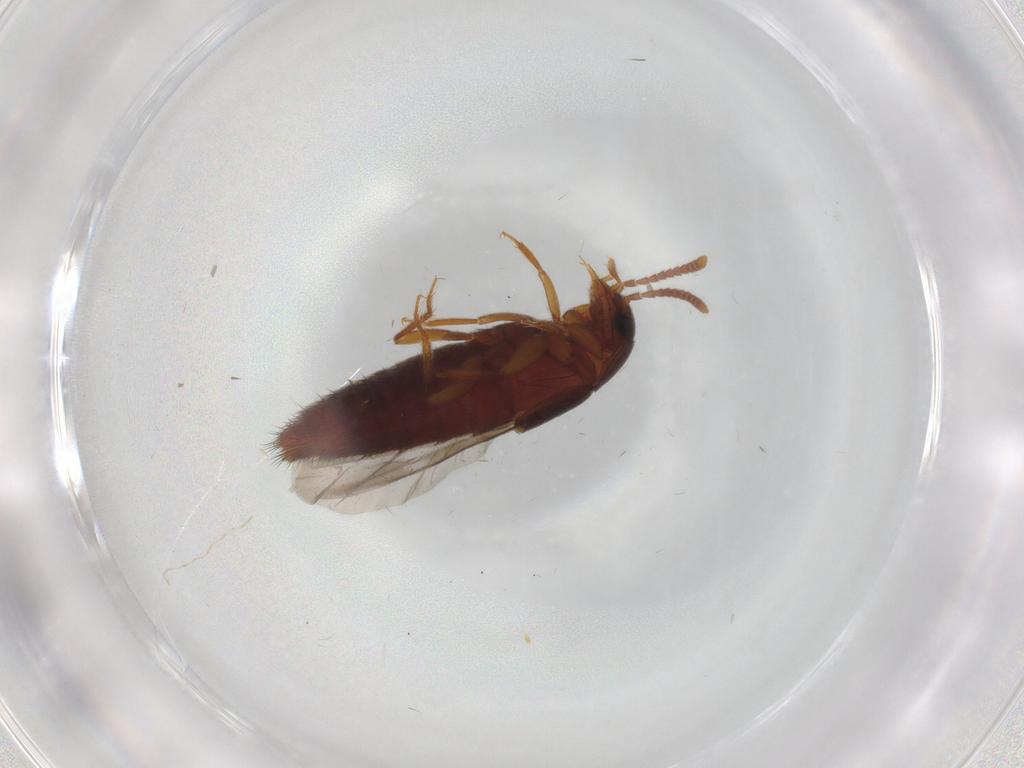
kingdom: Animalia
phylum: Arthropoda
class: Insecta
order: Coleoptera
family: Staphylinidae
